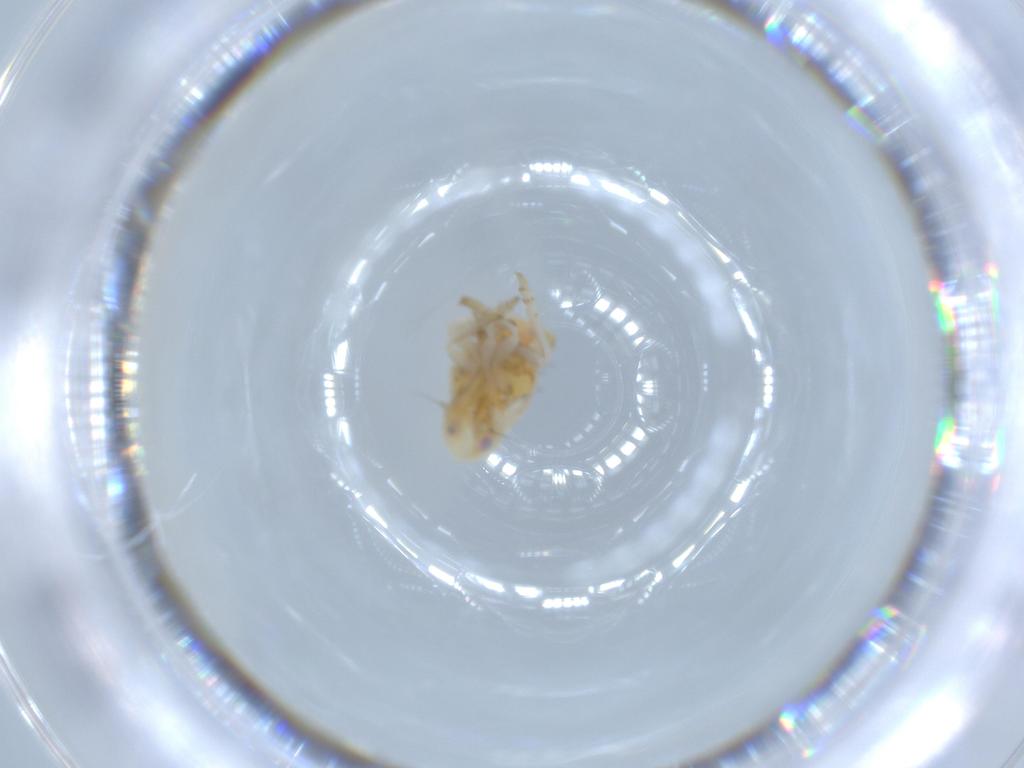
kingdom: Animalia
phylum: Arthropoda
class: Insecta
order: Hemiptera
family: Flatidae
